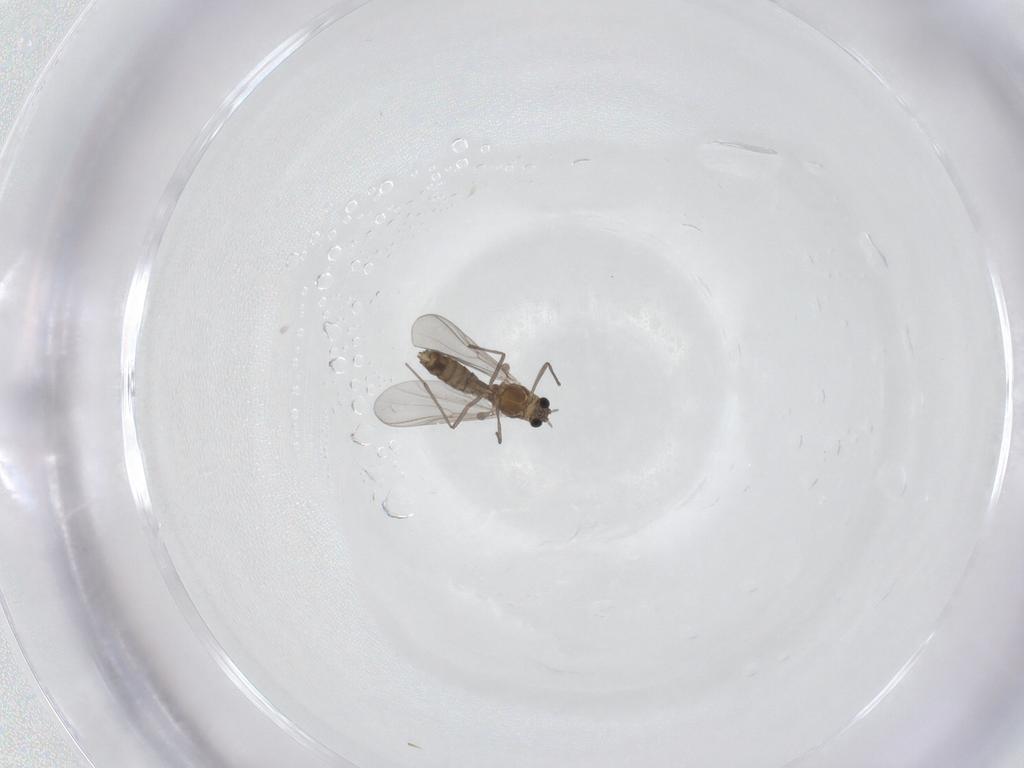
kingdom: Animalia
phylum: Arthropoda
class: Insecta
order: Diptera
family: Chironomidae
